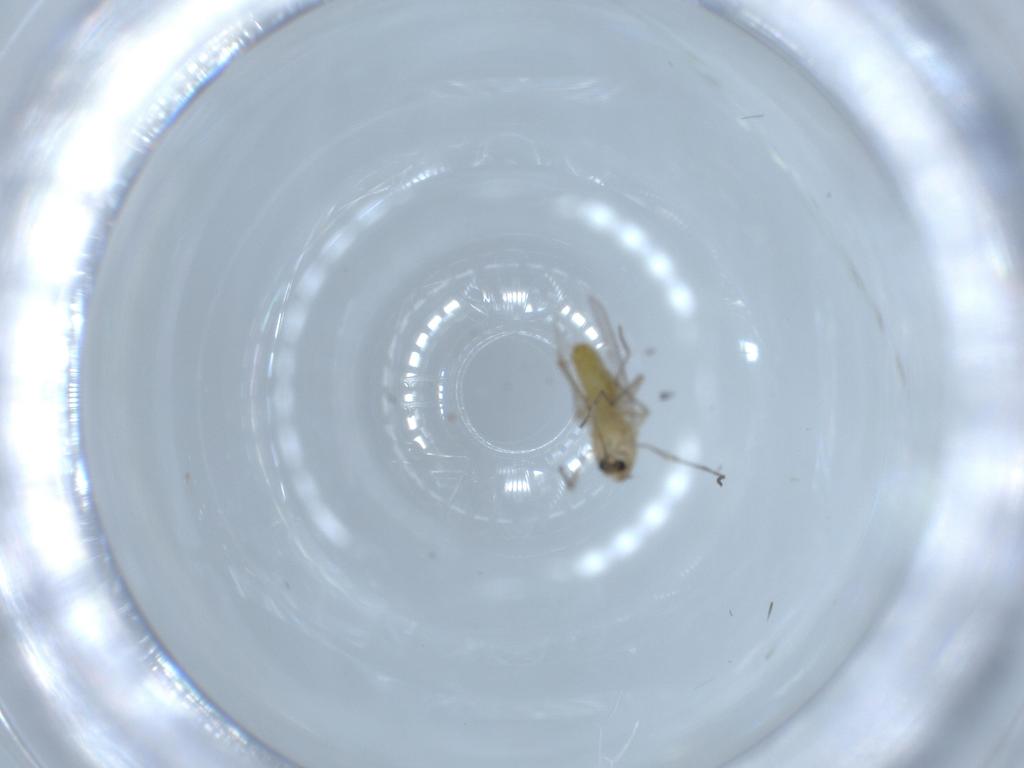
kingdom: Animalia
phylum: Arthropoda
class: Insecta
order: Diptera
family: Chironomidae
